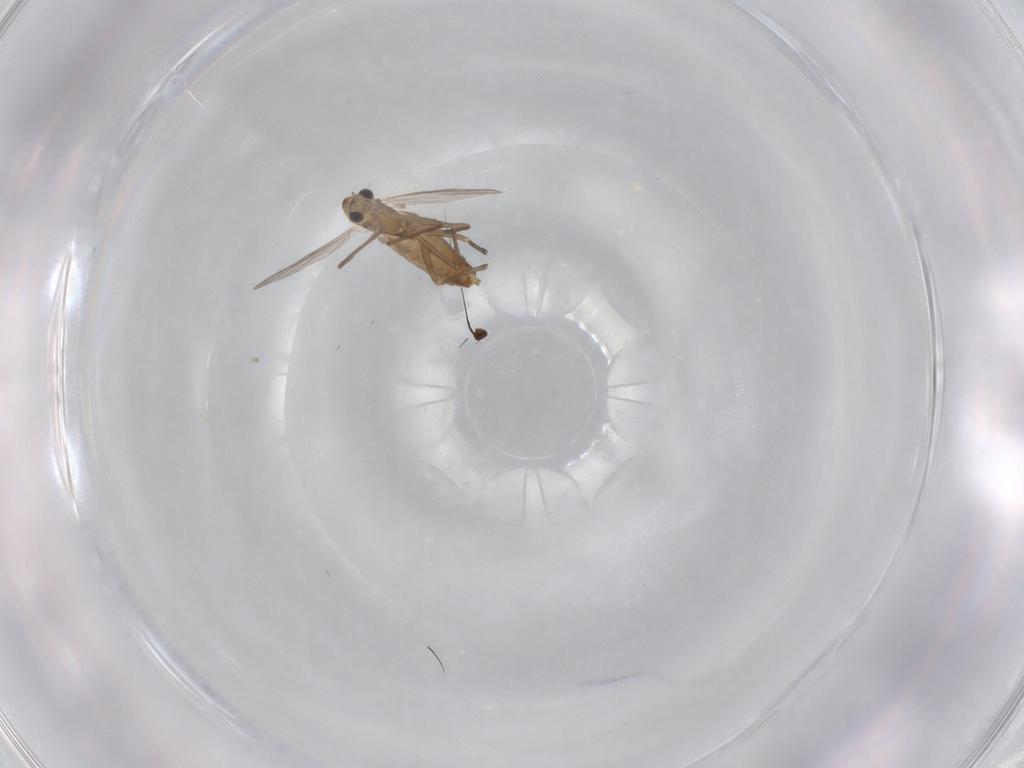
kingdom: Animalia
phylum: Arthropoda
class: Insecta
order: Diptera
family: Chironomidae
